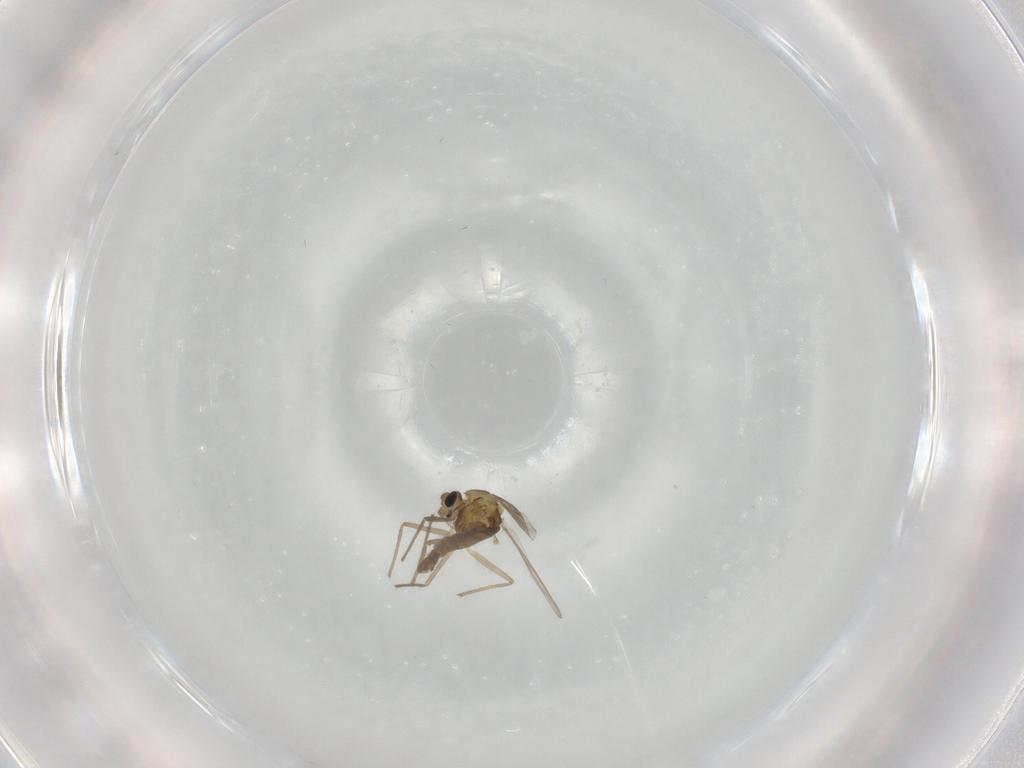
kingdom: Animalia
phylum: Arthropoda
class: Insecta
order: Diptera
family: Chironomidae
